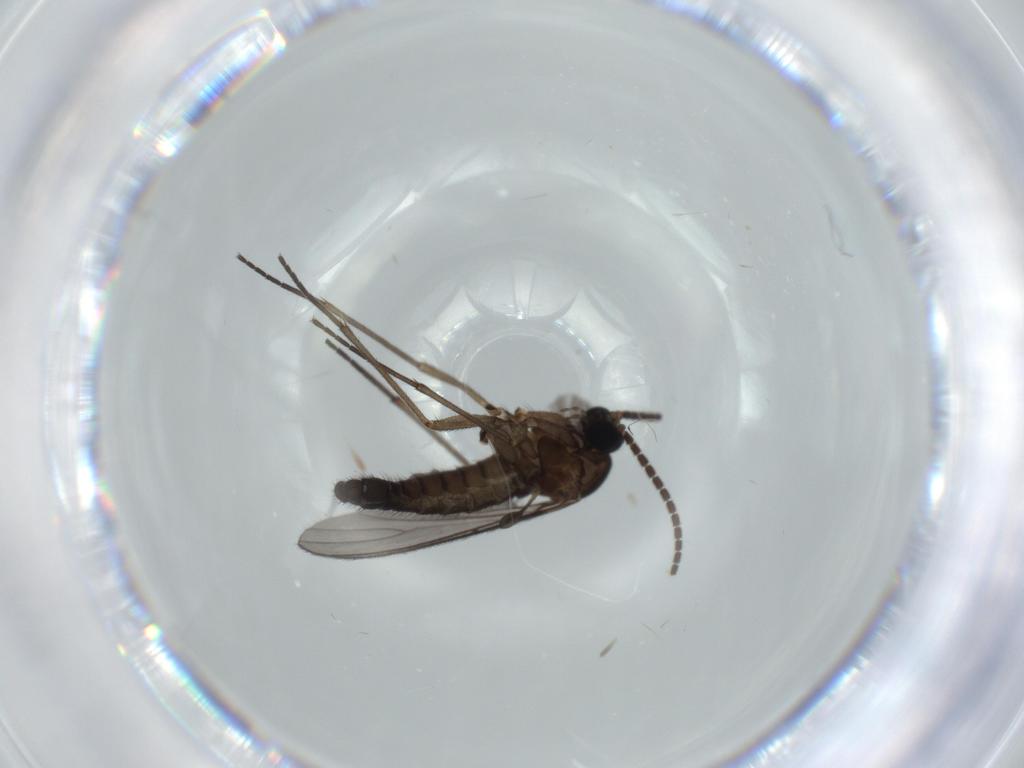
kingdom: Animalia
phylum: Arthropoda
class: Insecta
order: Diptera
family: Sciaridae
